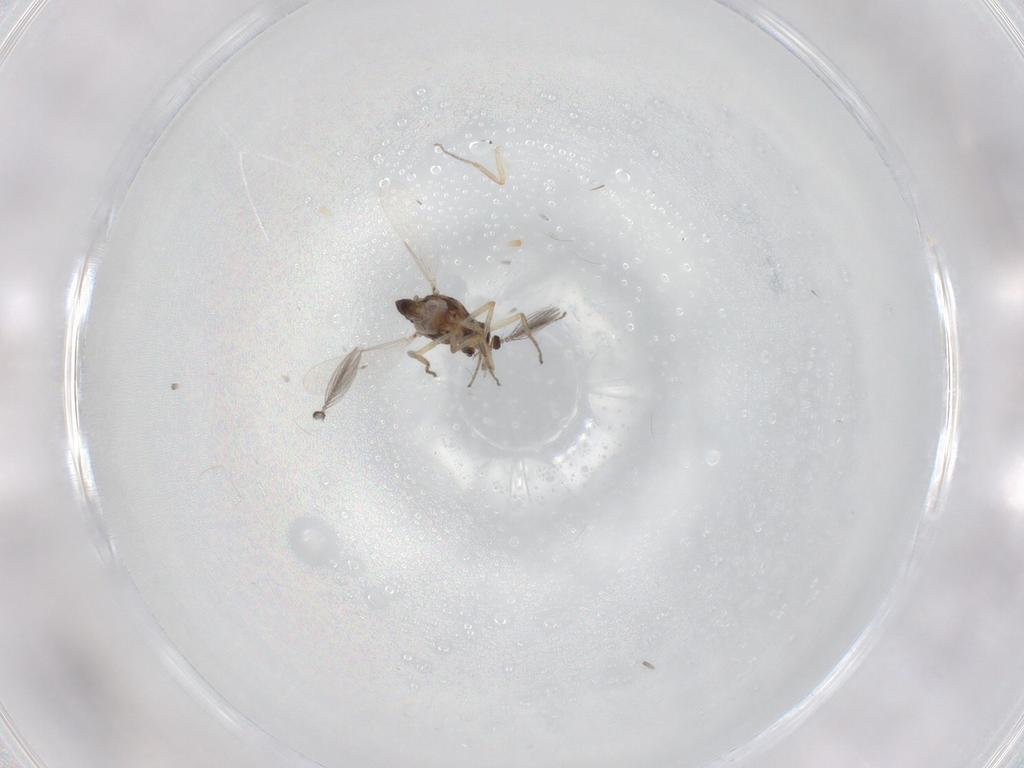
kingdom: Animalia
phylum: Arthropoda
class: Insecta
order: Diptera
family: Ceratopogonidae
